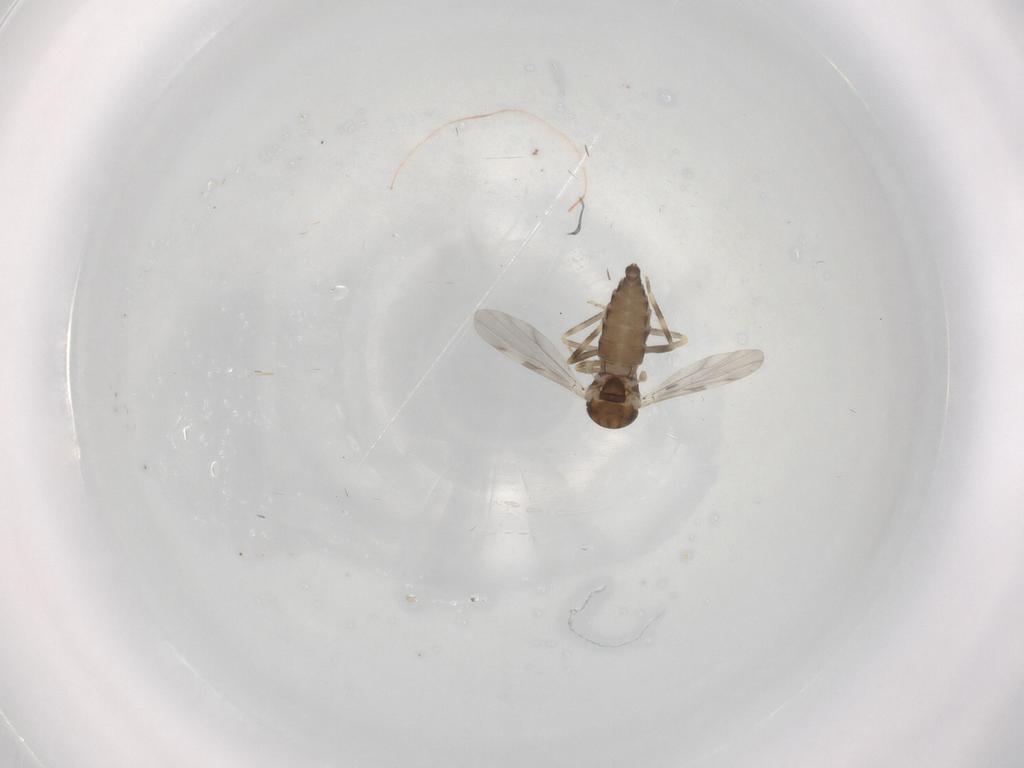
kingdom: Animalia
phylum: Arthropoda
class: Insecta
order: Diptera
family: Ceratopogonidae
